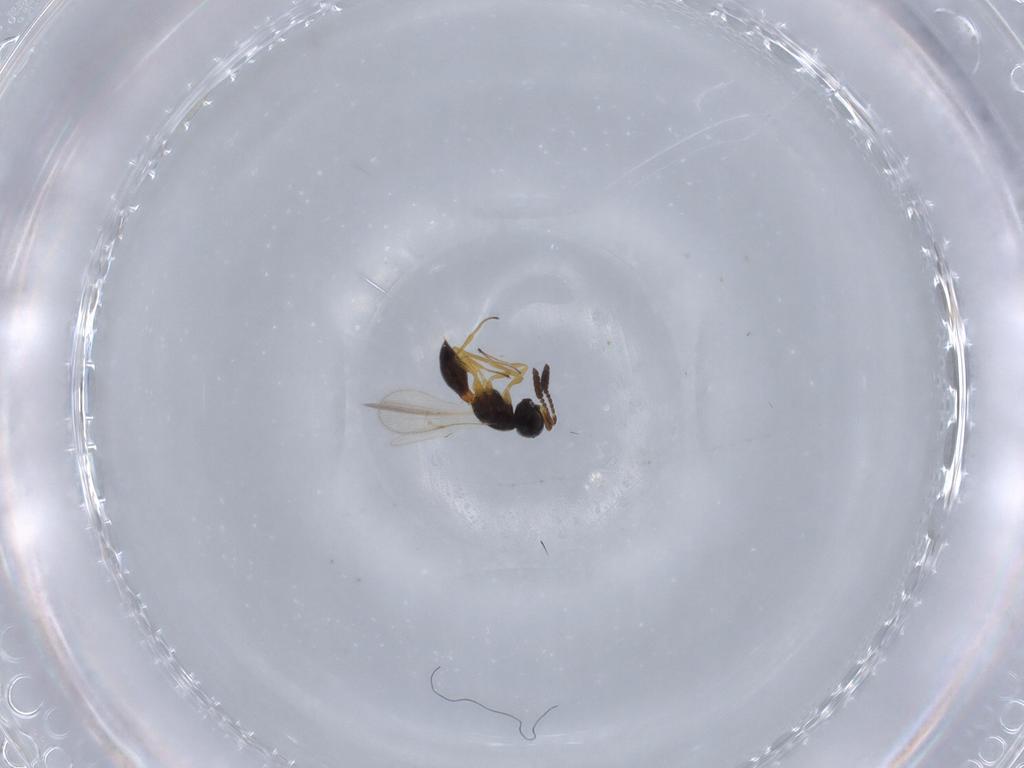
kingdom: Animalia
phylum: Arthropoda
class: Insecta
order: Hymenoptera
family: Scelionidae
